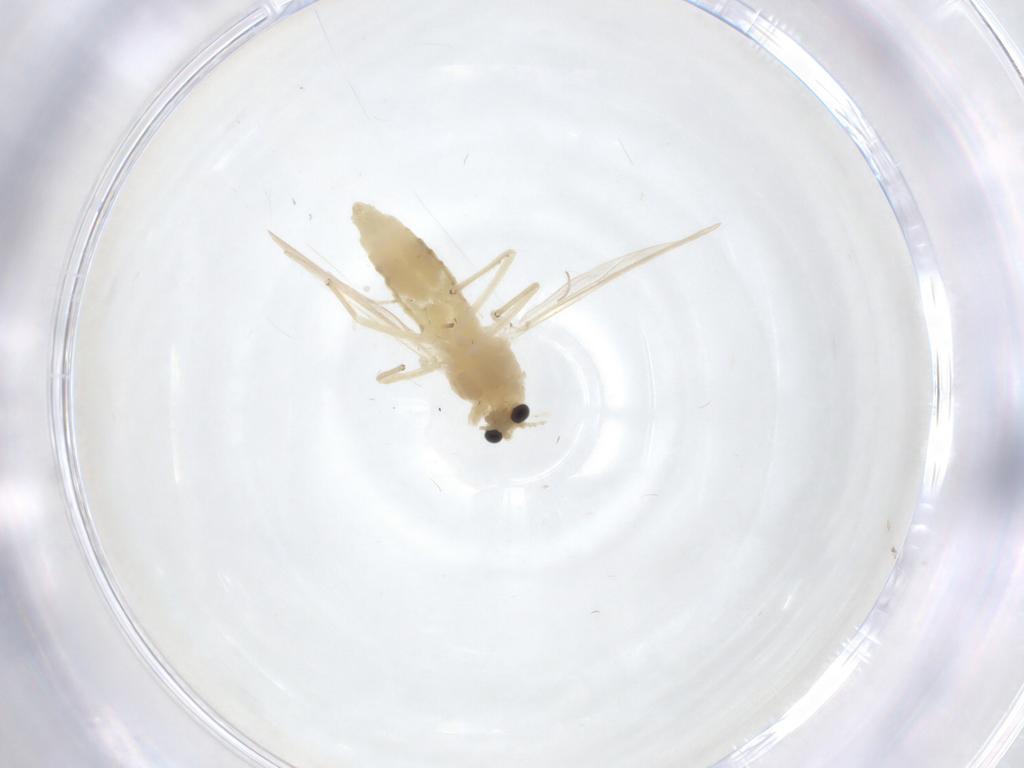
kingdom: Animalia
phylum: Arthropoda
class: Insecta
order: Diptera
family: Chironomidae
